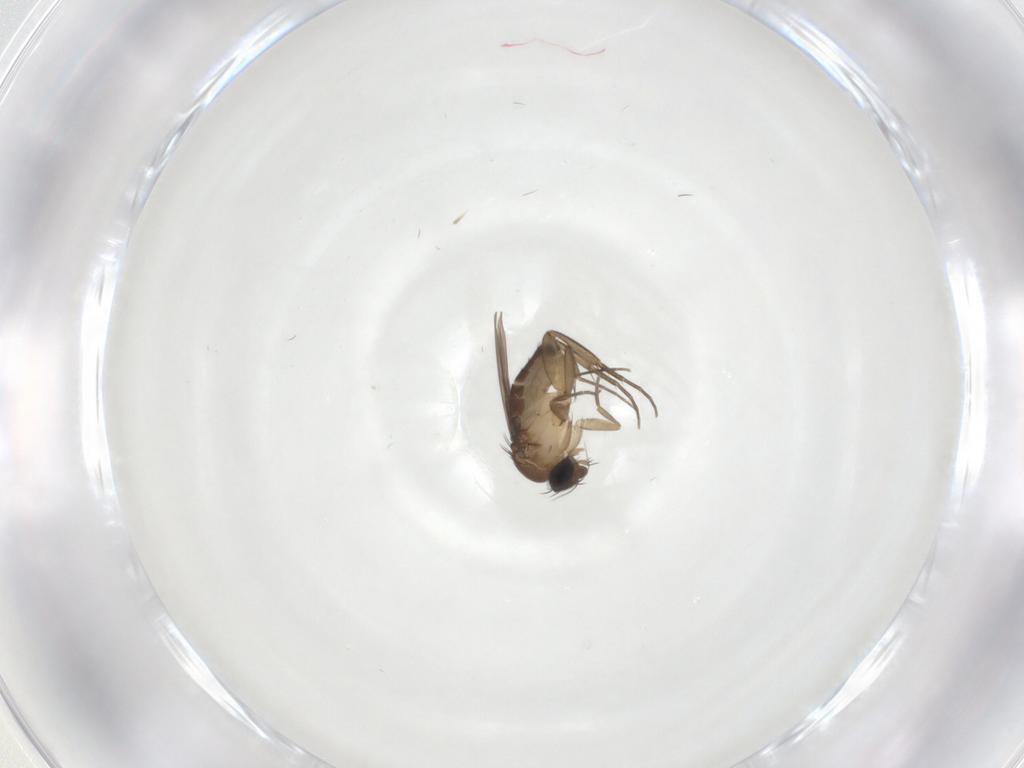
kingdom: Animalia
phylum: Arthropoda
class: Insecta
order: Diptera
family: Phoridae
